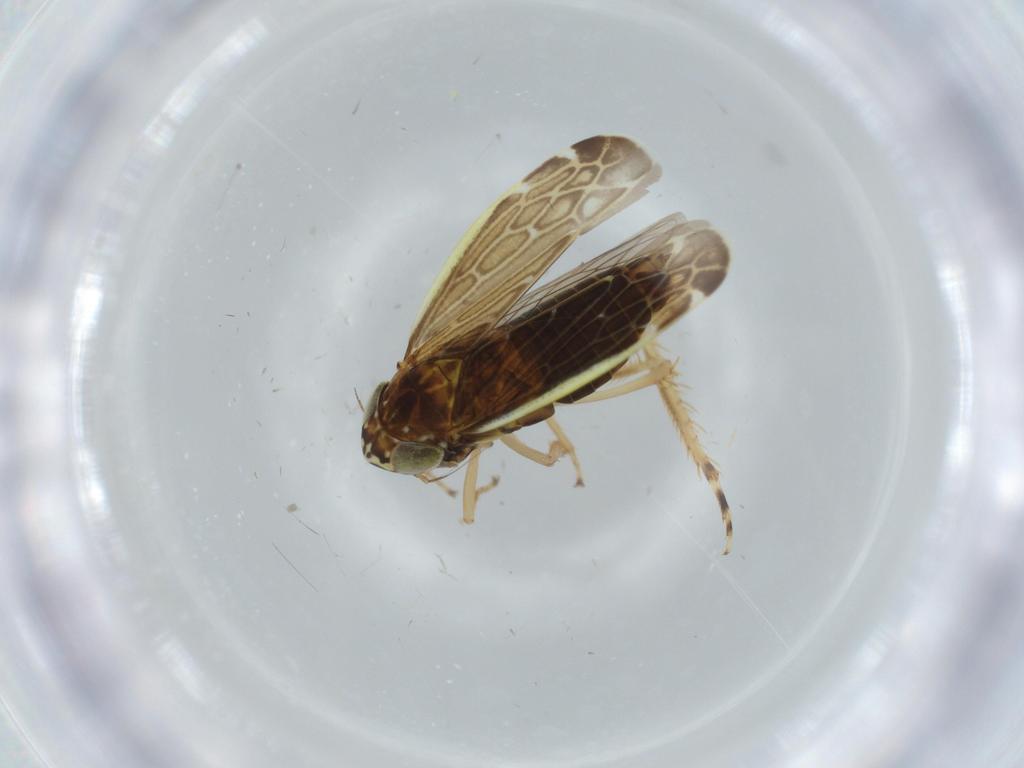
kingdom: Animalia
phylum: Arthropoda
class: Insecta
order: Hemiptera
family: Cicadellidae
